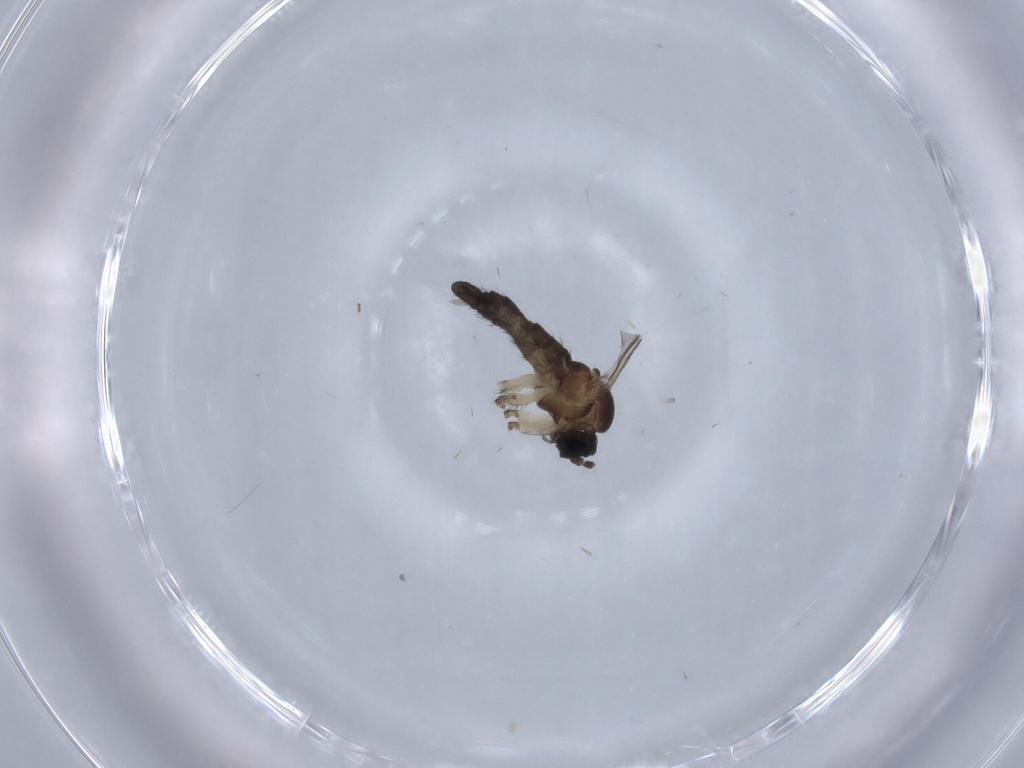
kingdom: Animalia
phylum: Arthropoda
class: Insecta
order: Diptera
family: Sciaridae
